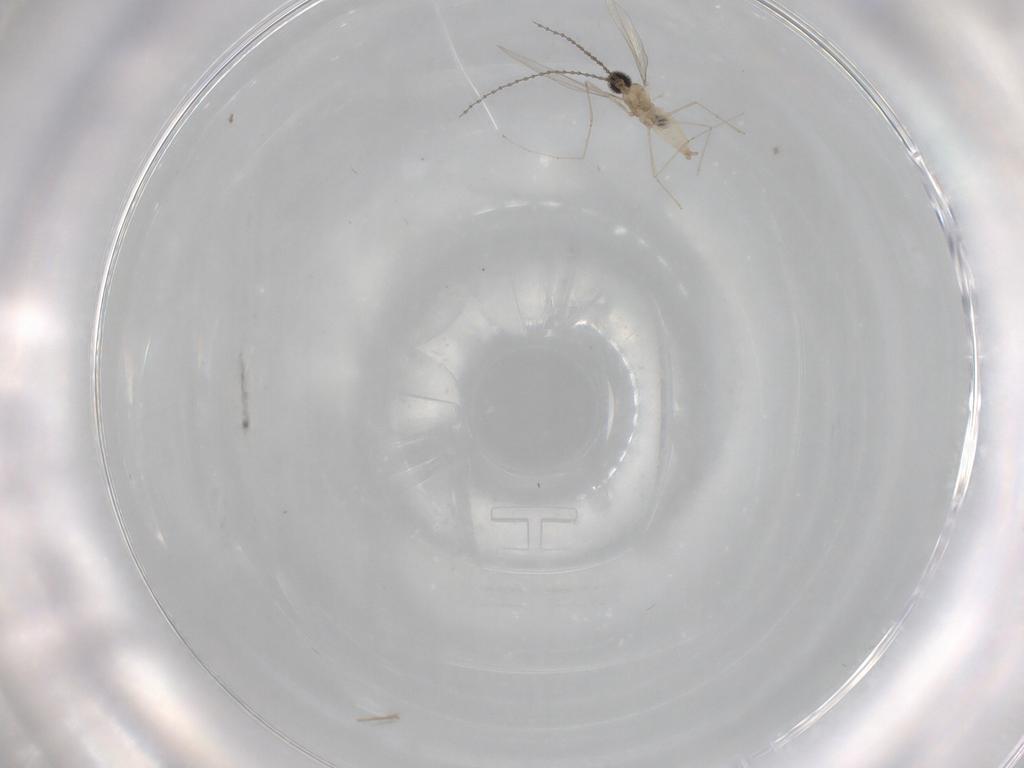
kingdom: Animalia
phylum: Arthropoda
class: Insecta
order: Diptera
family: Cecidomyiidae
